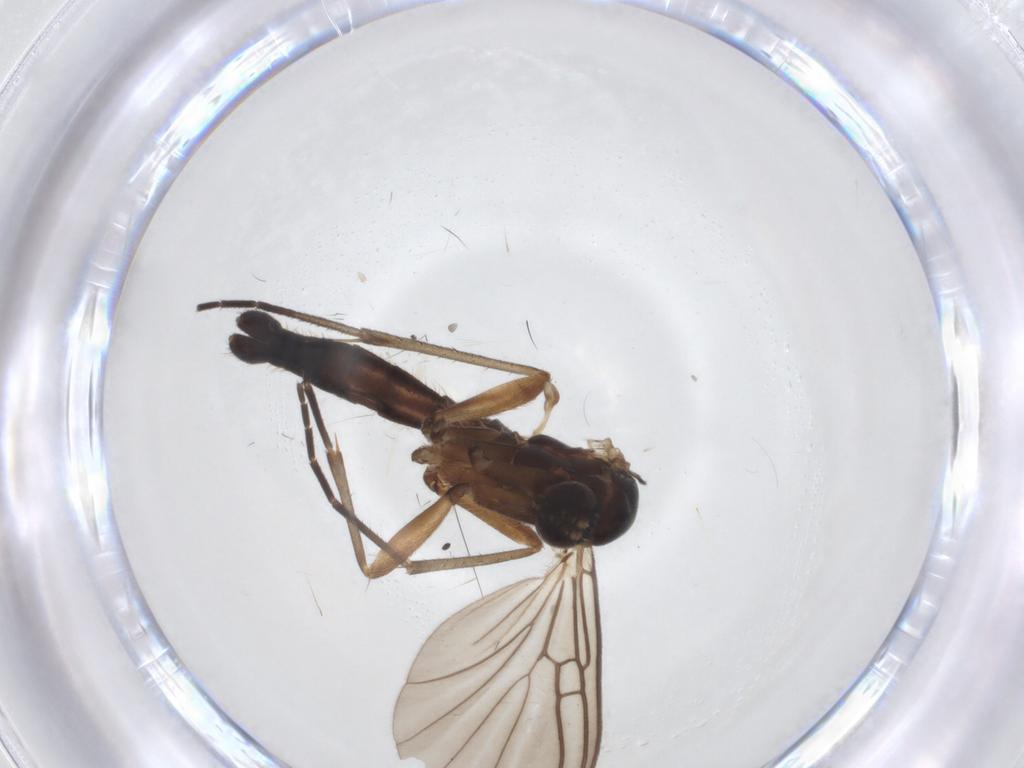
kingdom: Animalia
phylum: Arthropoda
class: Insecta
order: Diptera
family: Mycetophilidae
